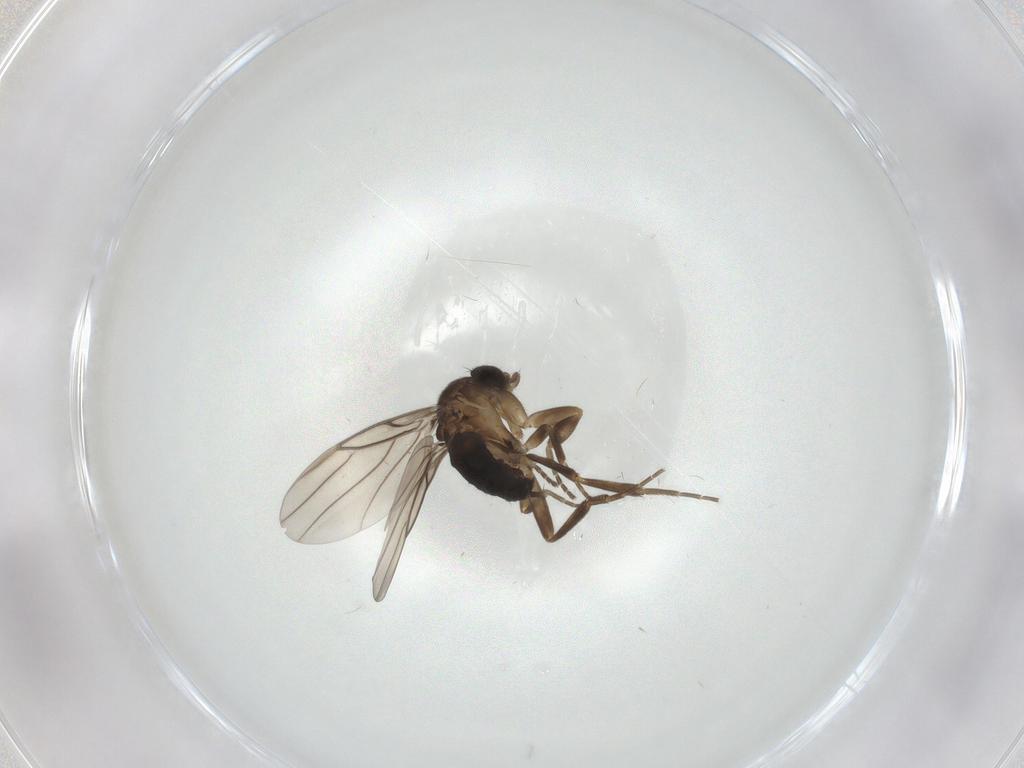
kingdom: Animalia
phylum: Arthropoda
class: Insecta
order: Diptera
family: Phoridae
